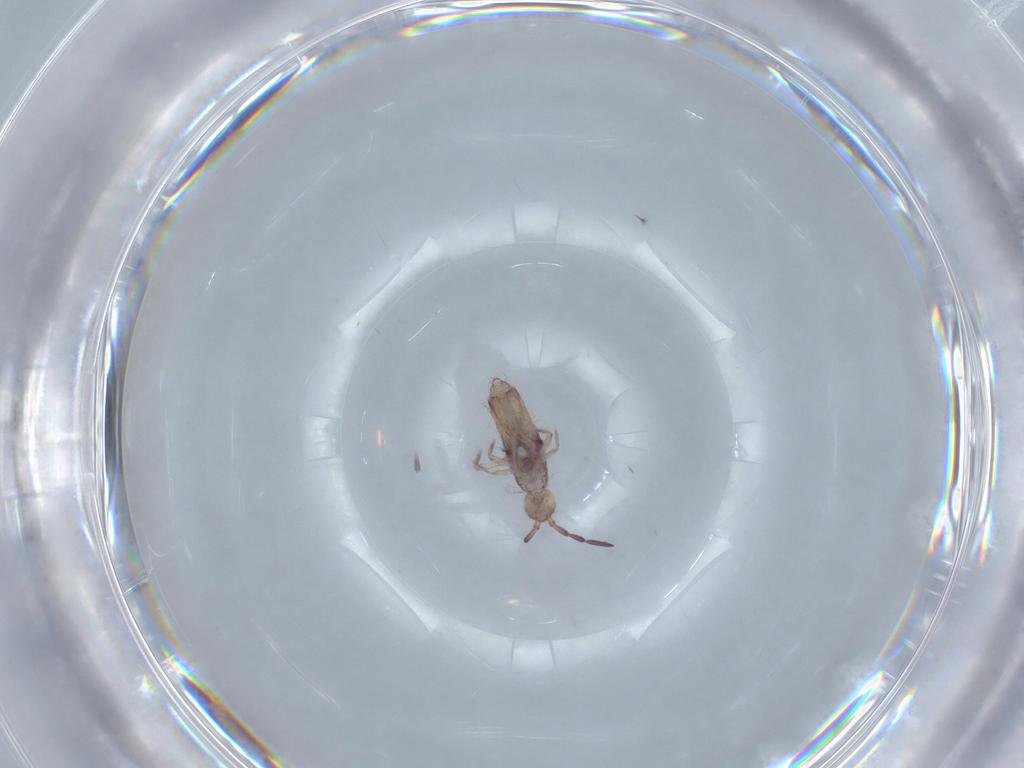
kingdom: Animalia
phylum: Arthropoda
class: Collembola
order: Entomobryomorpha
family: Entomobryidae
